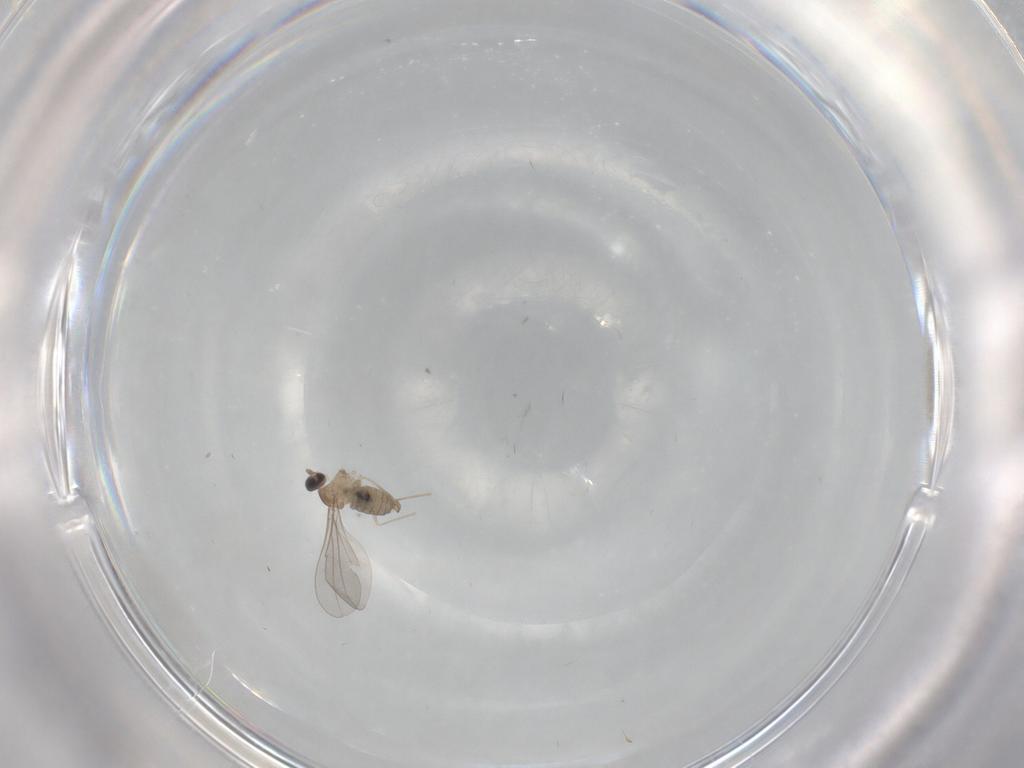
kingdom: Animalia
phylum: Arthropoda
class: Insecta
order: Diptera
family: Cecidomyiidae
